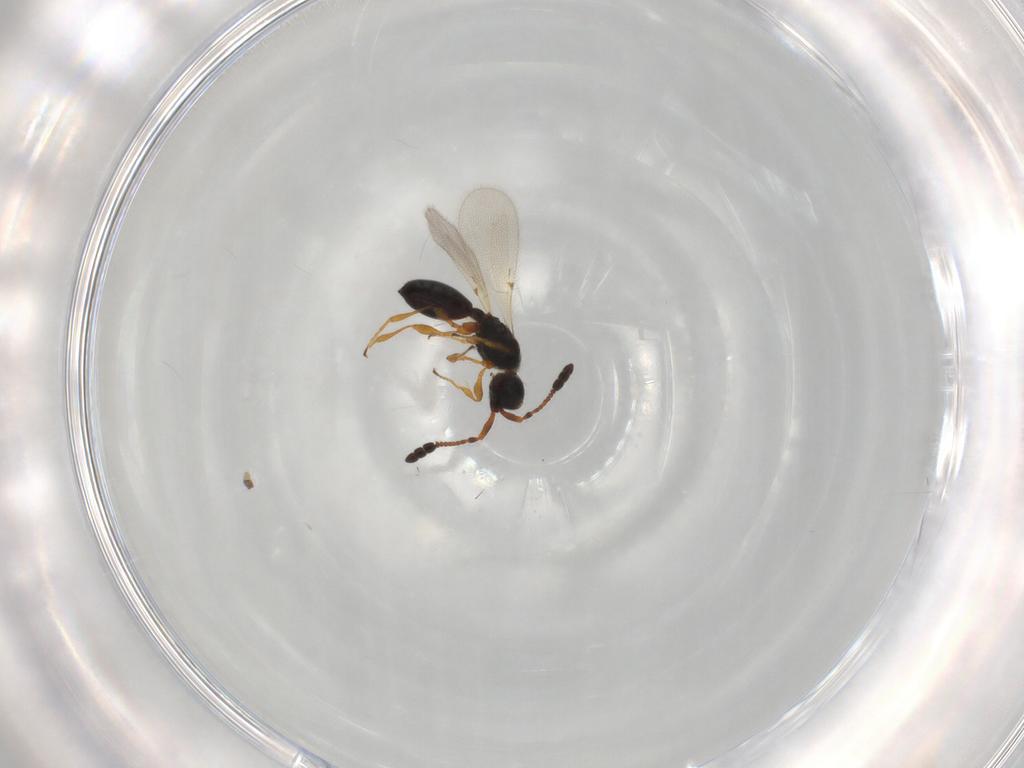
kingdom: Animalia
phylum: Arthropoda
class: Insecta
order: Hymenoptera
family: Diapriidae
